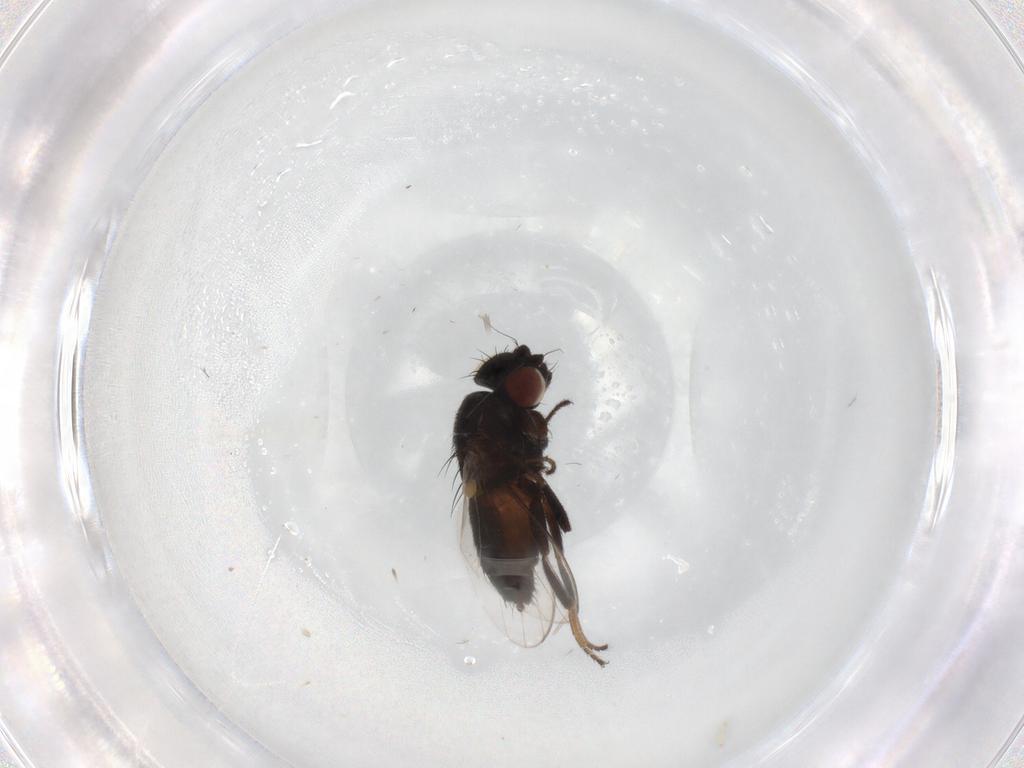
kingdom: Animalia
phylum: Arthropoda
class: Insecta
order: Diptera
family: Milichiidae
